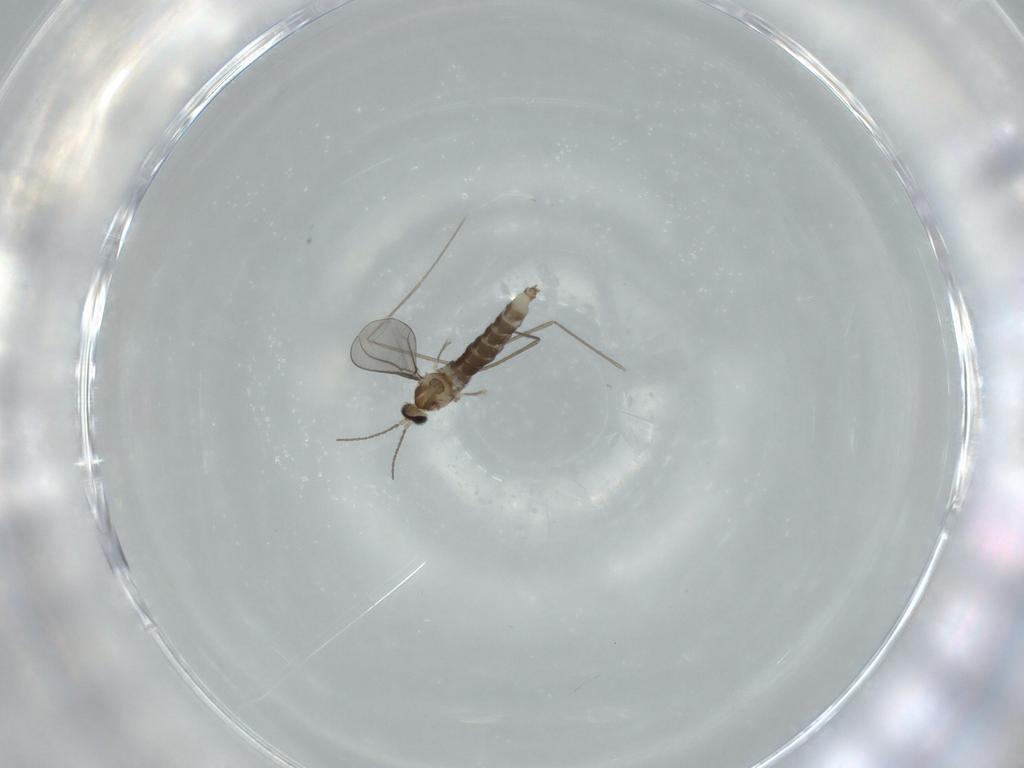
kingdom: Animalia
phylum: Arthropoda
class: Insecta
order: Diptera
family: Cecidomyiidae
